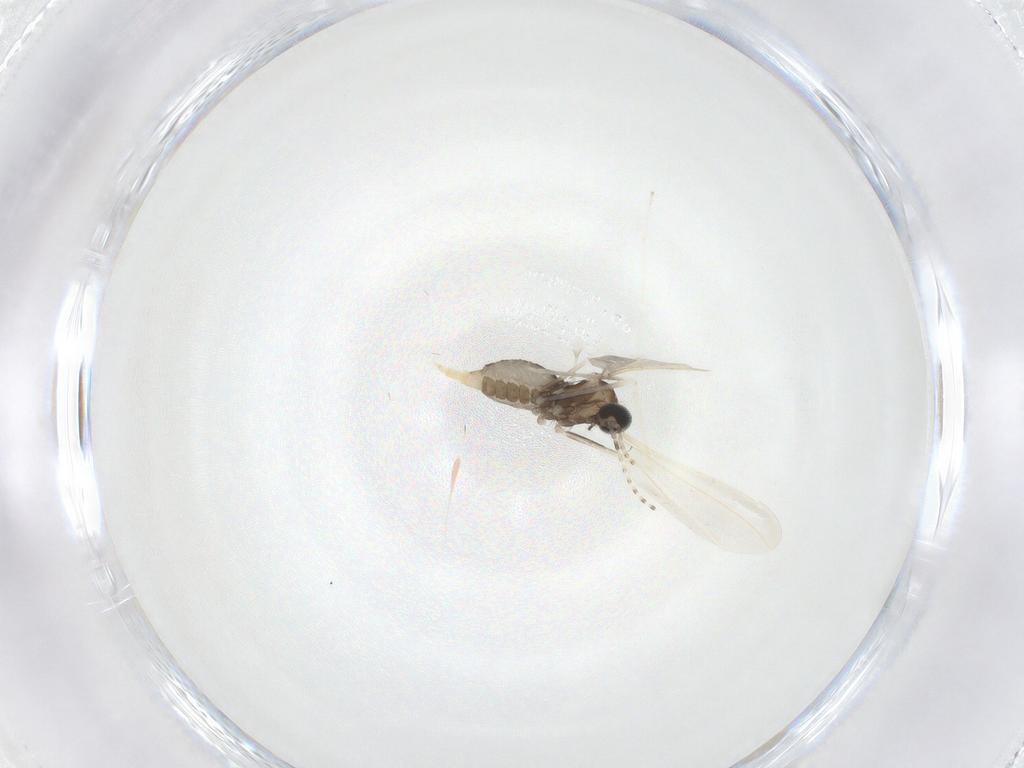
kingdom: Animalia
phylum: Arthropoda
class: Insecta
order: Diptera
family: Cecidomyiidae
